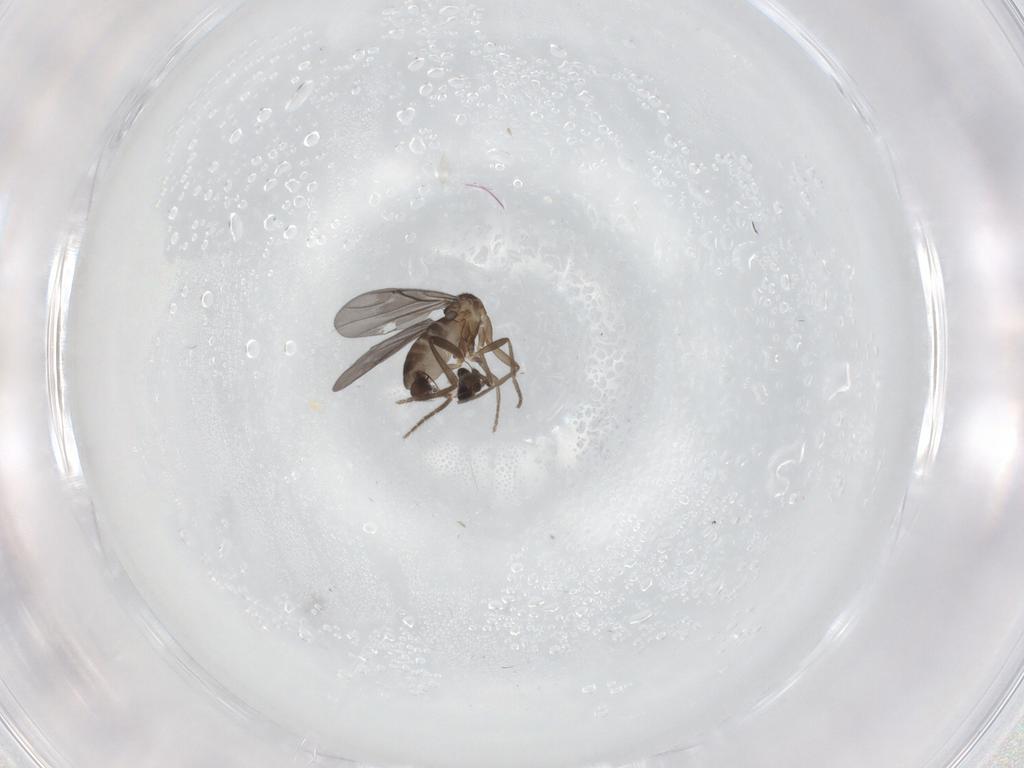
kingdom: Animalia
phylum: Arthropoda
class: Insecta
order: Diptera
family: Phoridae
